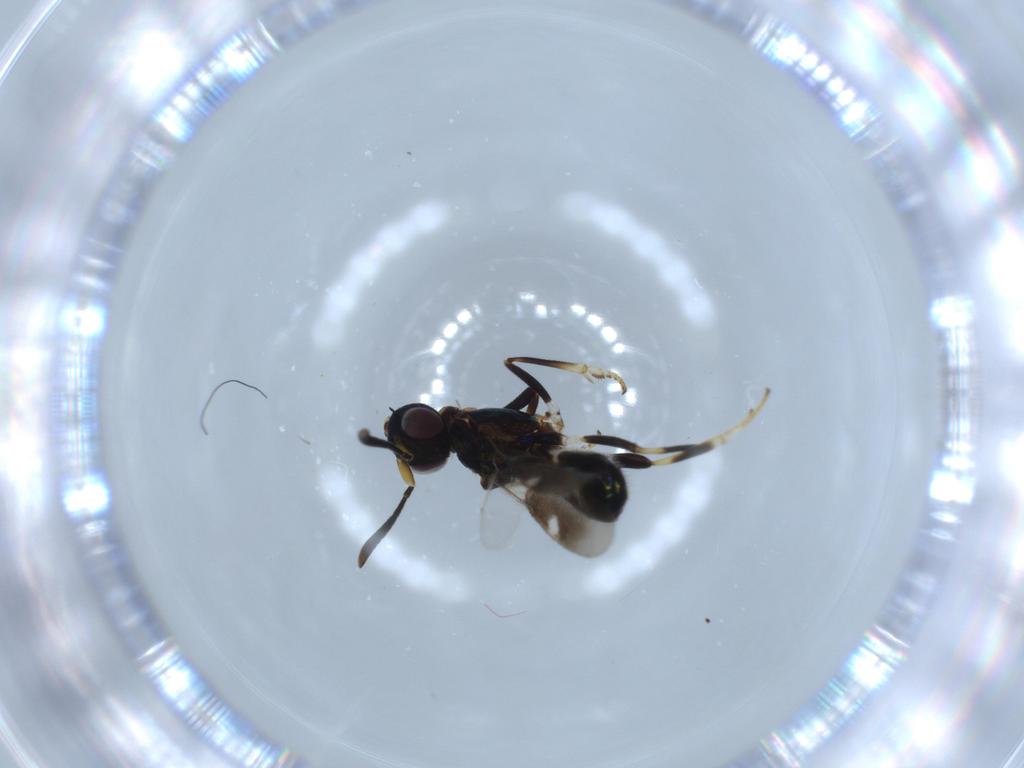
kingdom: Animalia
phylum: Arthropoda
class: Insecta
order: Hymenoptera
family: Eupelmidae
